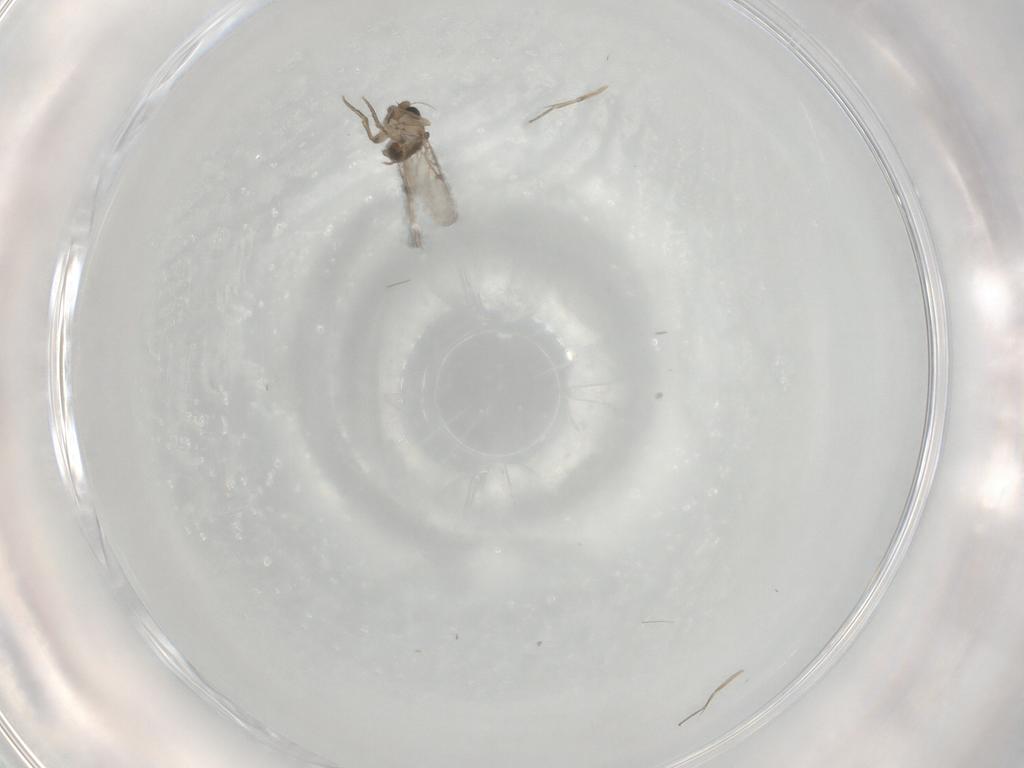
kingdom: Animalia
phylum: Arthropoda
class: Insecta
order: Diptera
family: Phoridae
